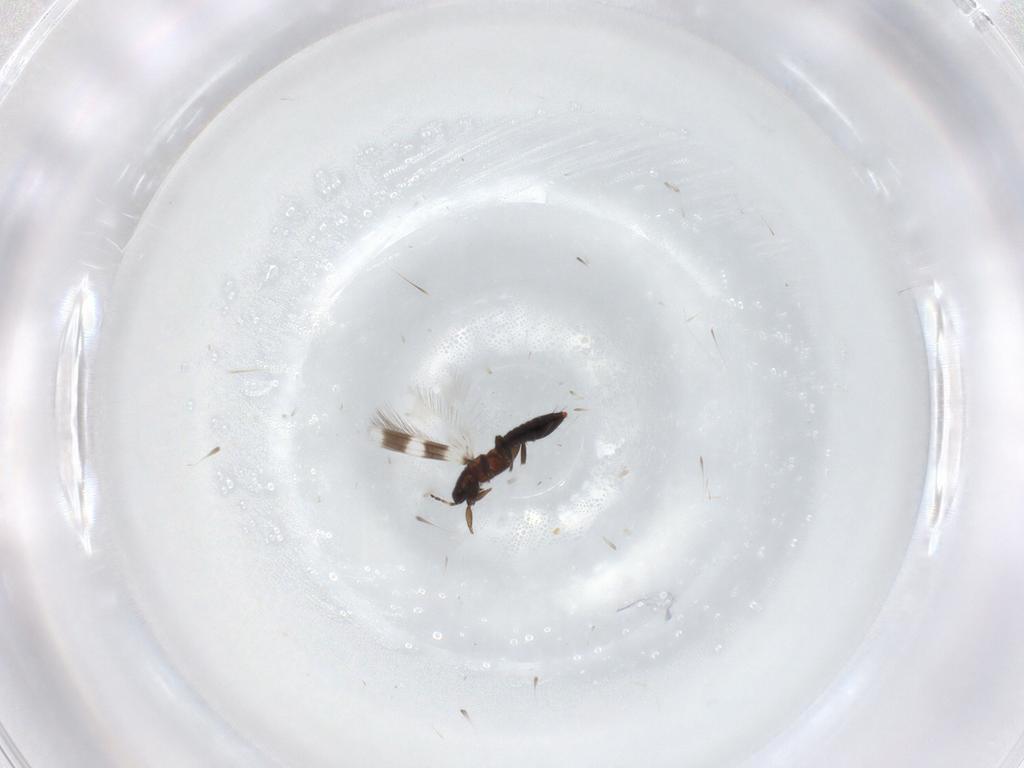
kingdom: Animalia
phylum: Arthropoda
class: Insecta
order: Thysanoptera
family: Aeolothripidae
